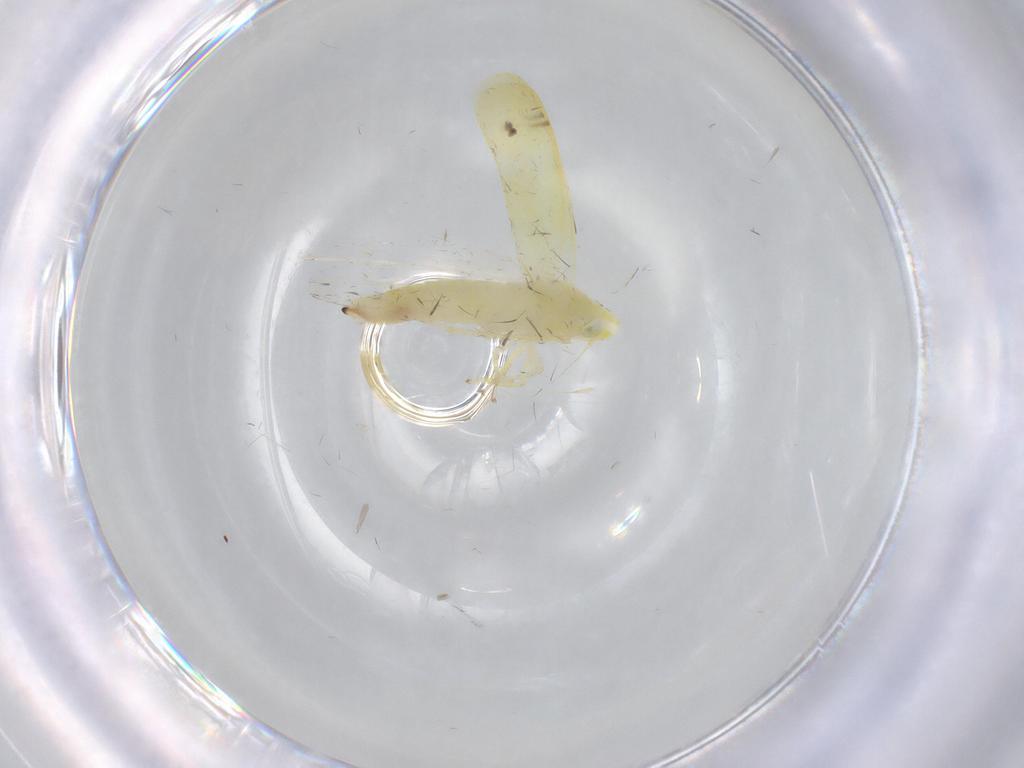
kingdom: Animalia
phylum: Arthropoda
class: Insecta
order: Hemiptera
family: Cicadellidae
